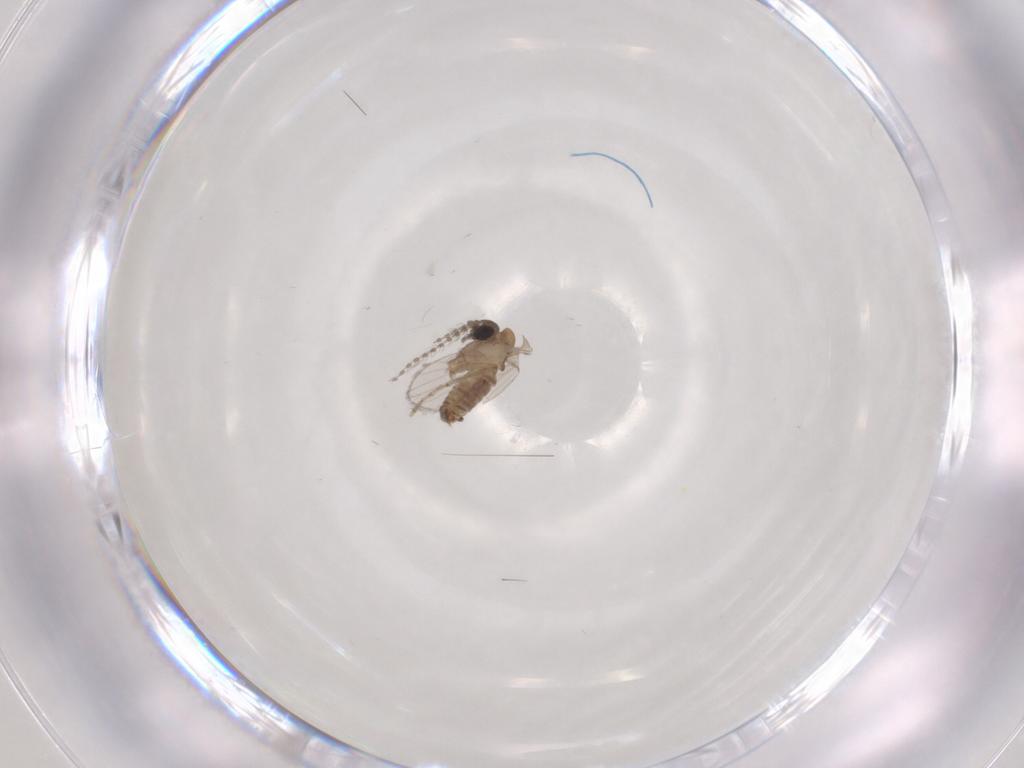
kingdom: Animalia
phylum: Arthropoda
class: Insecta
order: Diptera
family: Psychodidae
